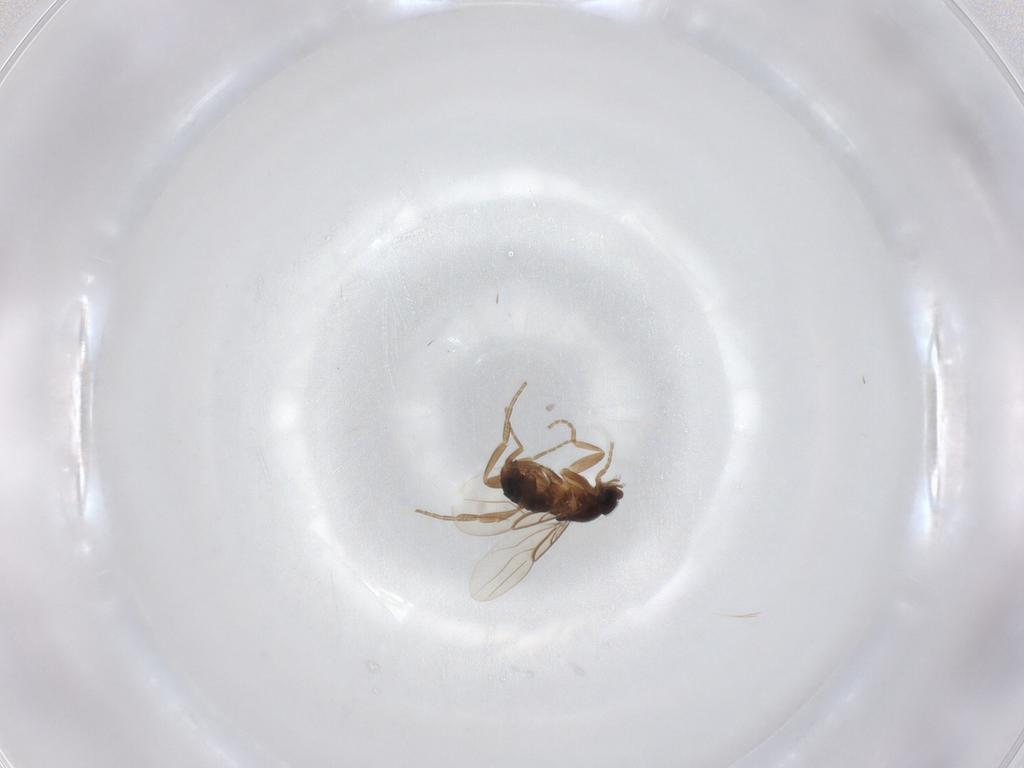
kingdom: Animalia
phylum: Arthropoda
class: Insecta
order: Diptera
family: Phoridae
